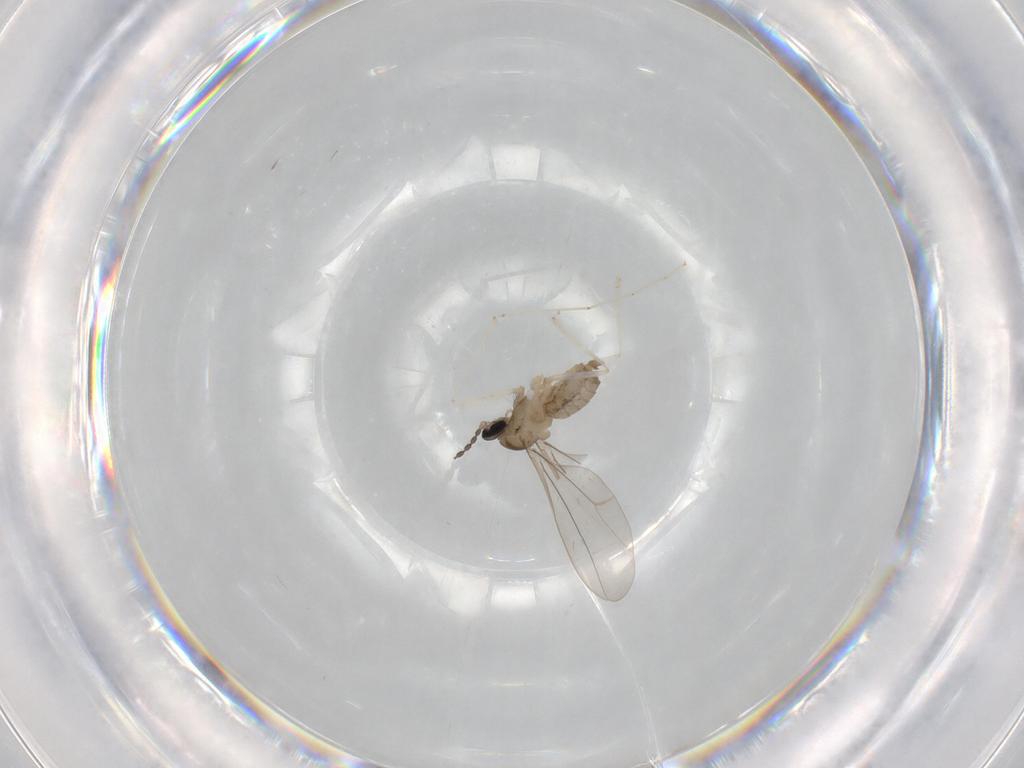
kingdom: Animalia
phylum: Arthropoda
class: Insecta
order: Diptera
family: Cecidomyiidae
